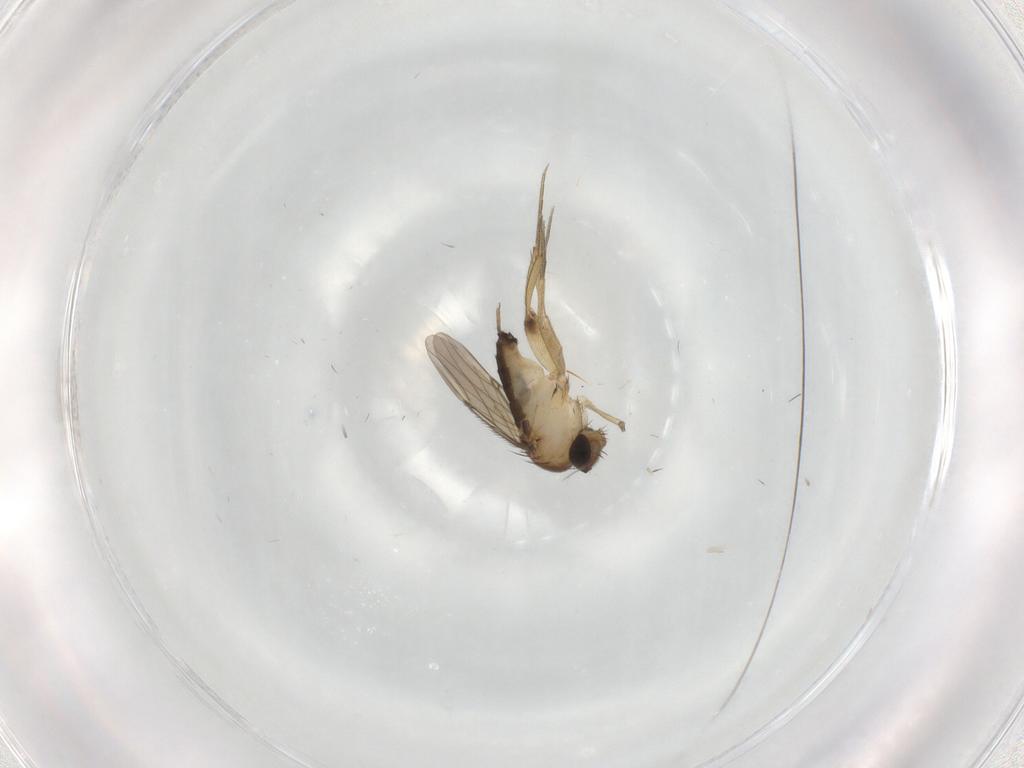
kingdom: Animalia
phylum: Arthropoda
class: Insecta
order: Diptera
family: Phoridae
